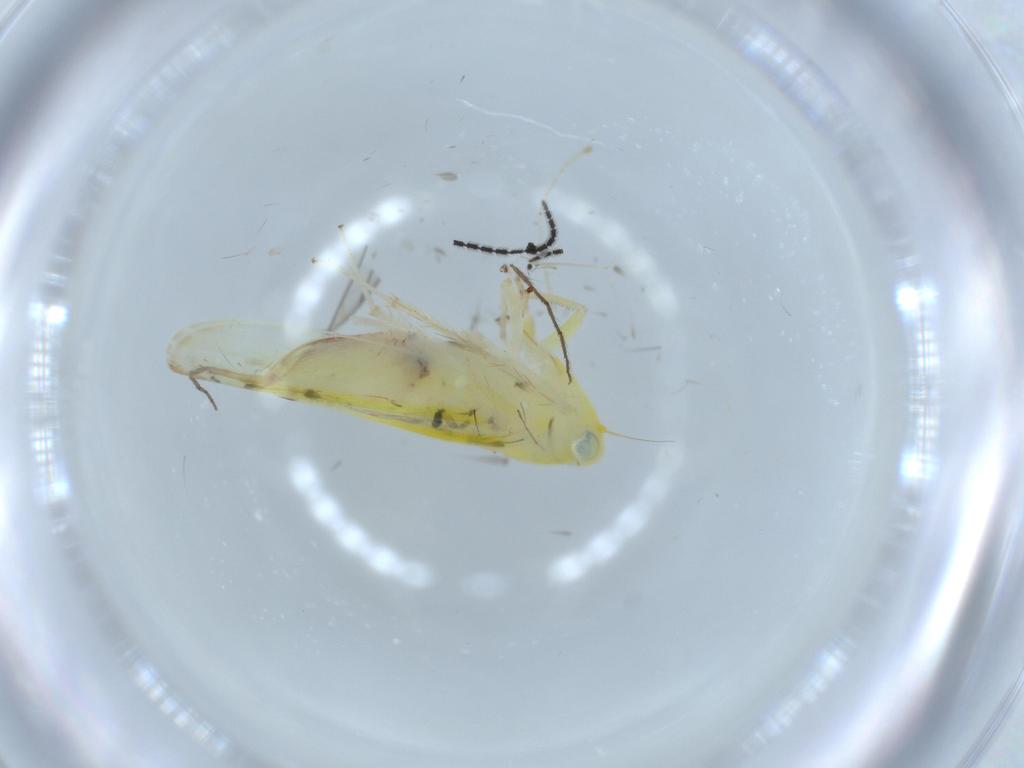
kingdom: Animalia
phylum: Arthropoda
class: Insecta
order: Hemiptera
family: Cicadellidae
